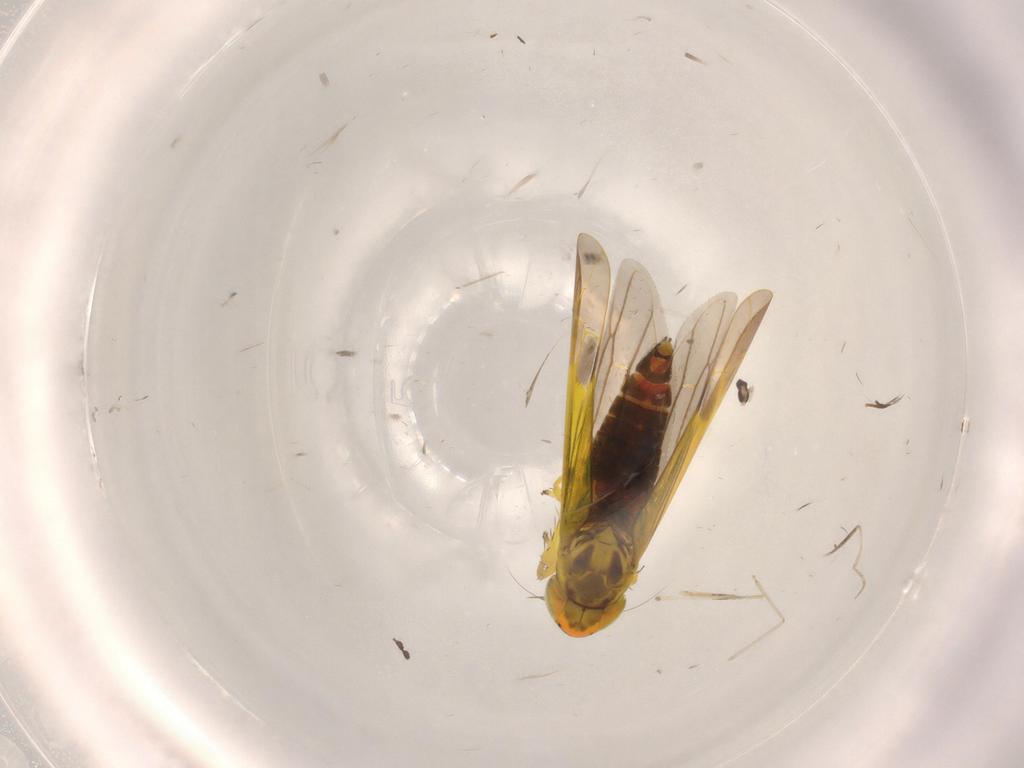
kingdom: Animalia
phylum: Arthropoda
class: Insecta
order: Hemiptera
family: Cicadellidae
